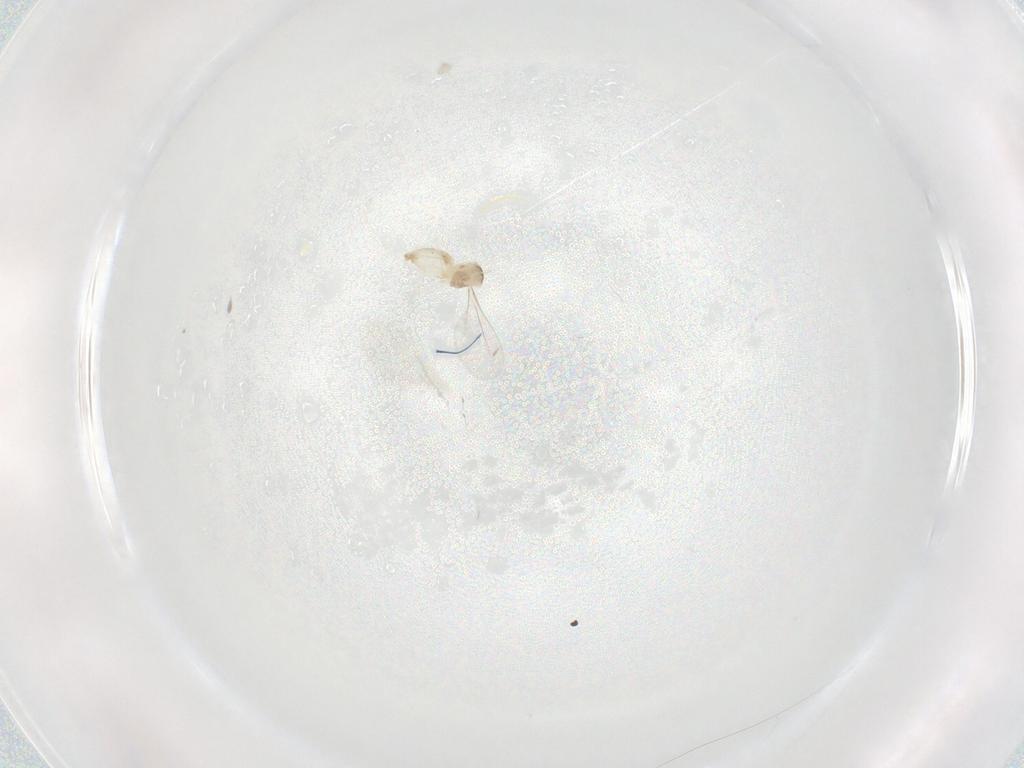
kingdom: Animalia
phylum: Arthropoda
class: Insecta
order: Diptera
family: Cecidomyiidae
